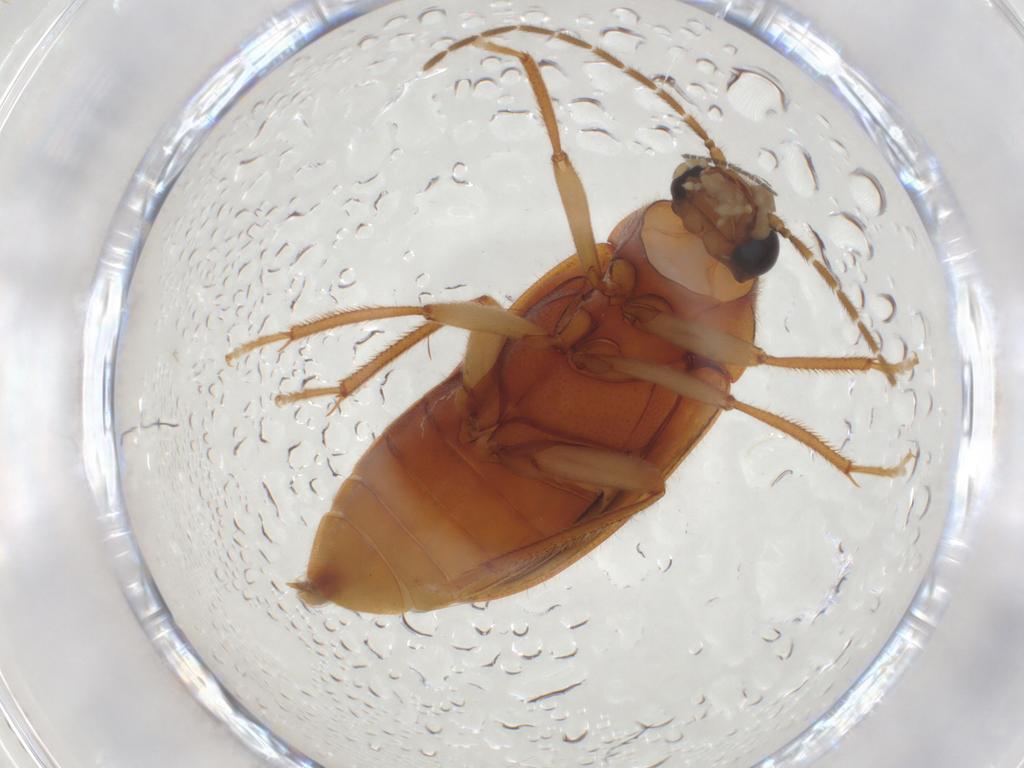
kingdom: Animalia
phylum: Arthropoda
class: Insecta
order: Coleoptera
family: Ptilodactylidae
